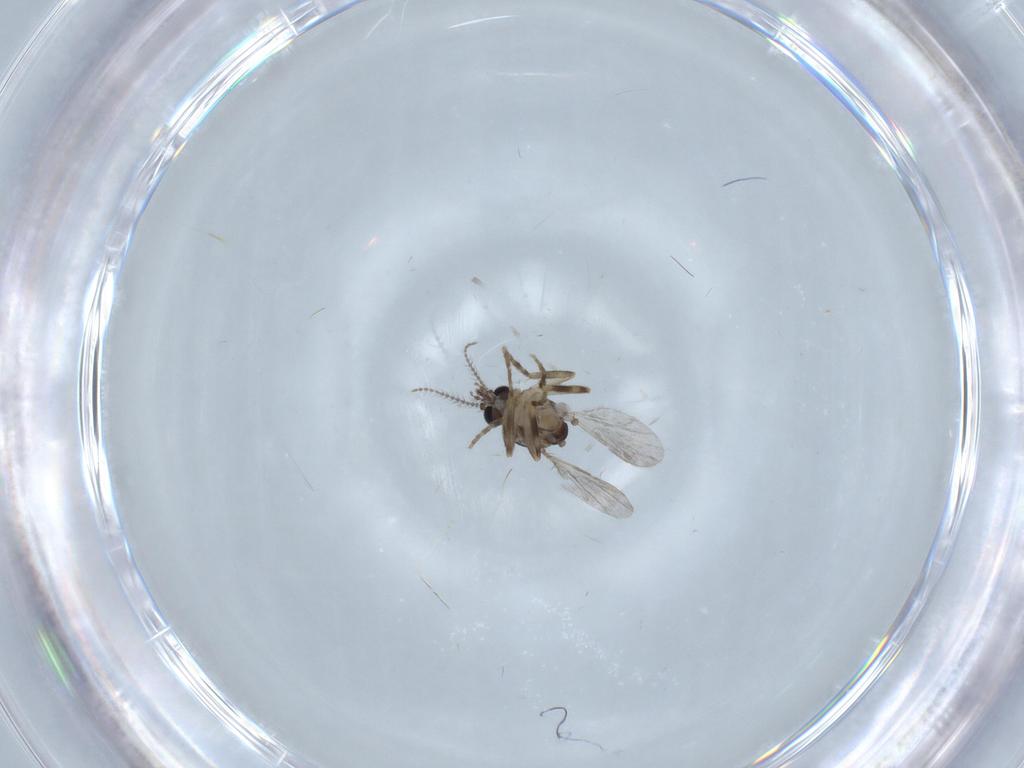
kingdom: Animalia
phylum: Arthropoda
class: Insecta
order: Diptera
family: Cecidomyiidae
